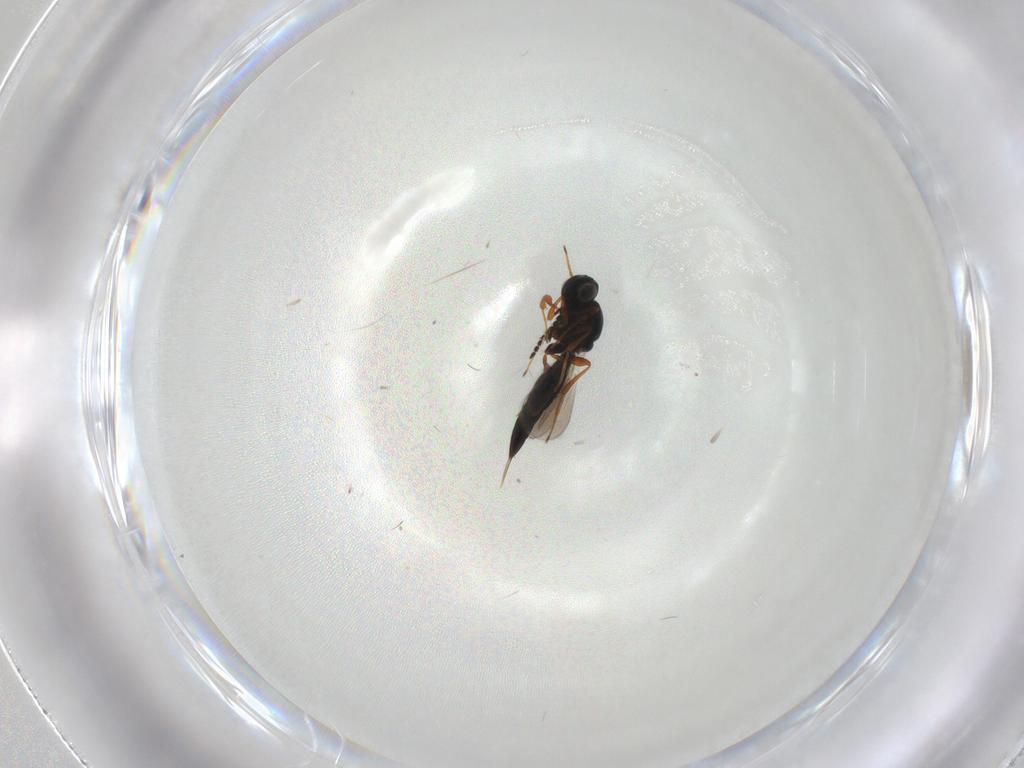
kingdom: Animalia
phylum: Arthropoda
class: Insecta
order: Hymenoptera
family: Platygastridae
